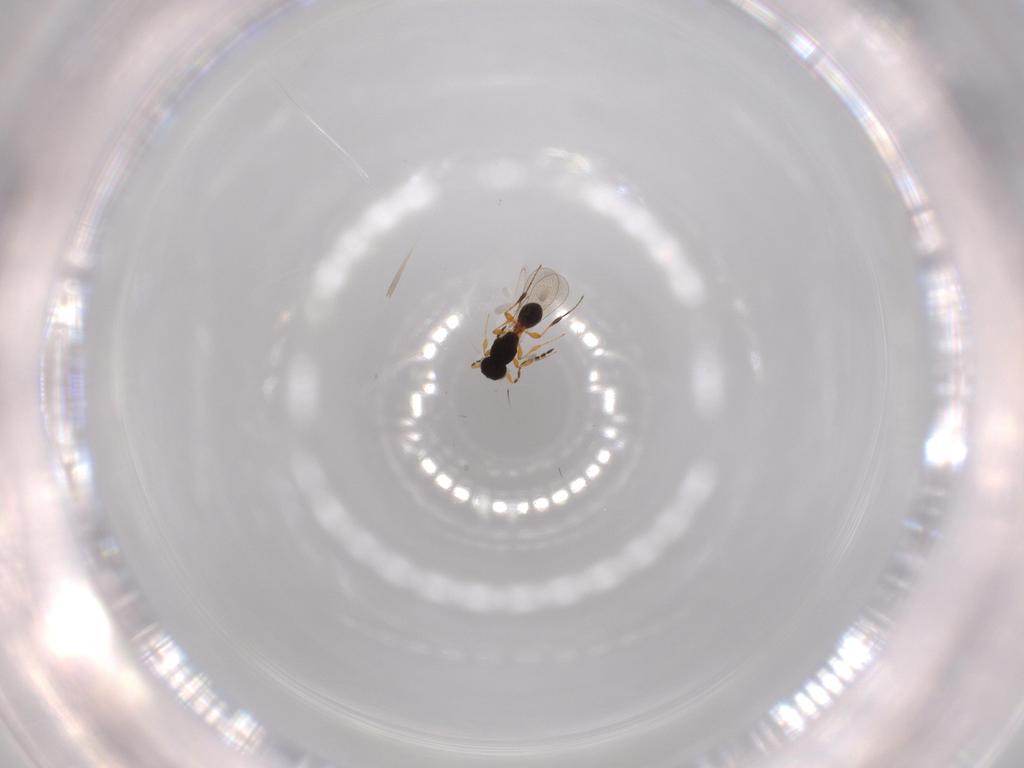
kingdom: Animalia
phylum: Arthropoda
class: Insecta
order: Hymenoptera
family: Platygastridae
